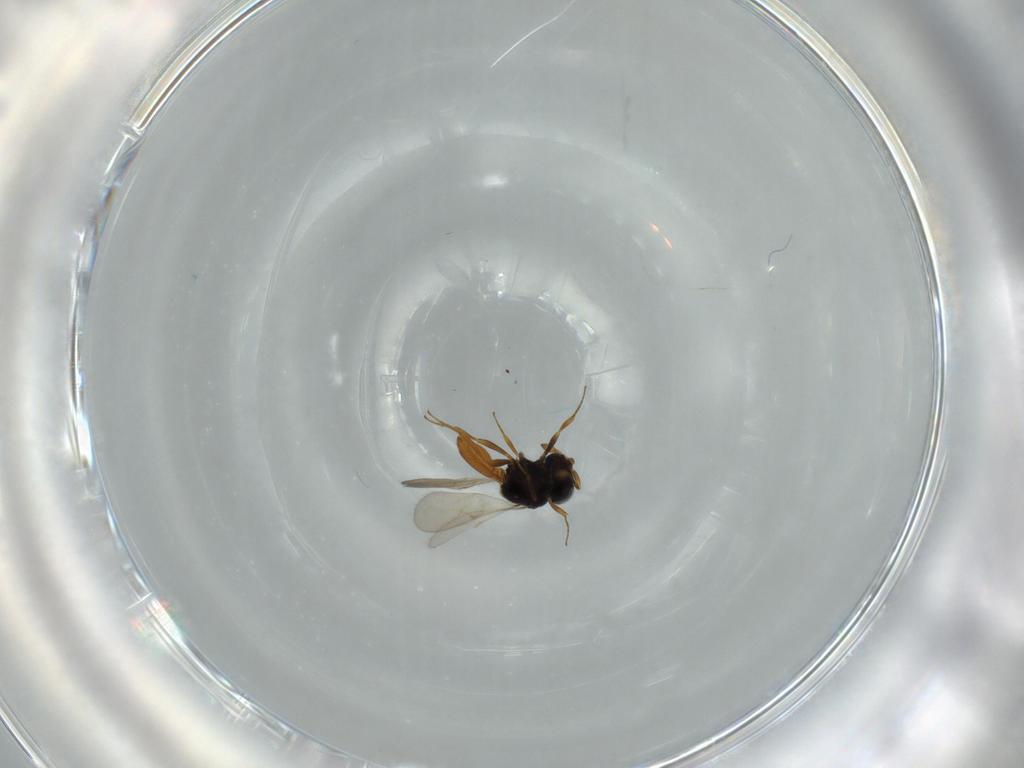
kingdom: Animalia
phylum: Arthropoda
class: Insecta
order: Hymenoptera
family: Scelionidae
